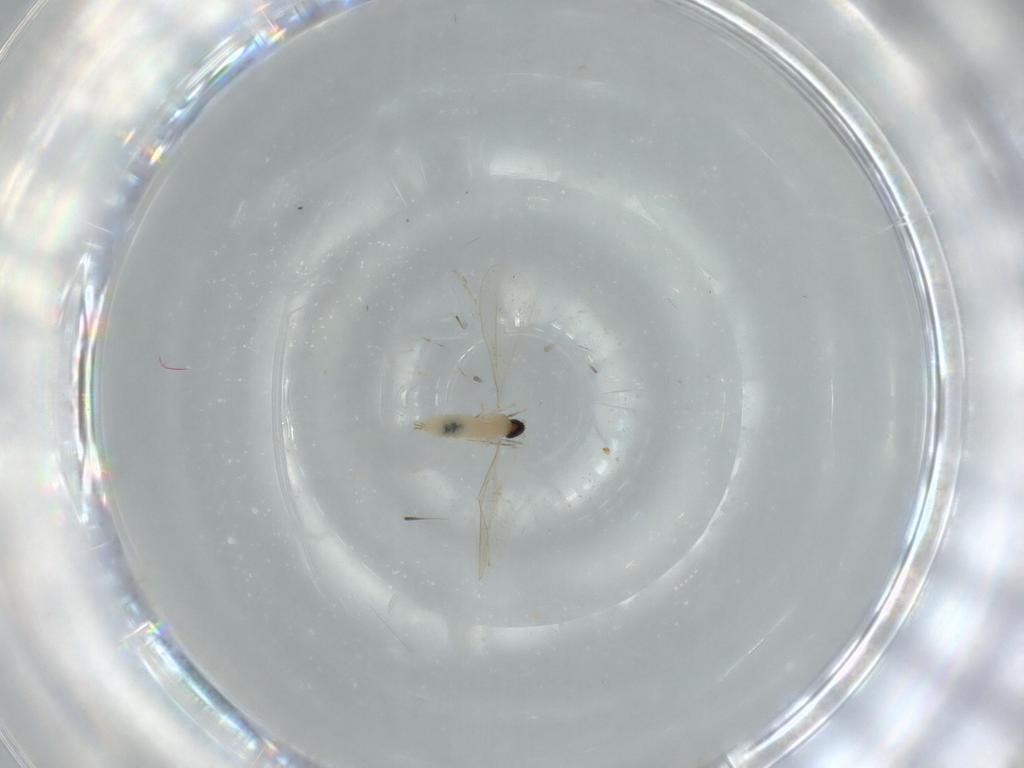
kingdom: Animalia
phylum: Arthropoda
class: Insecta
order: Diptera
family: Cecidomyiidae
